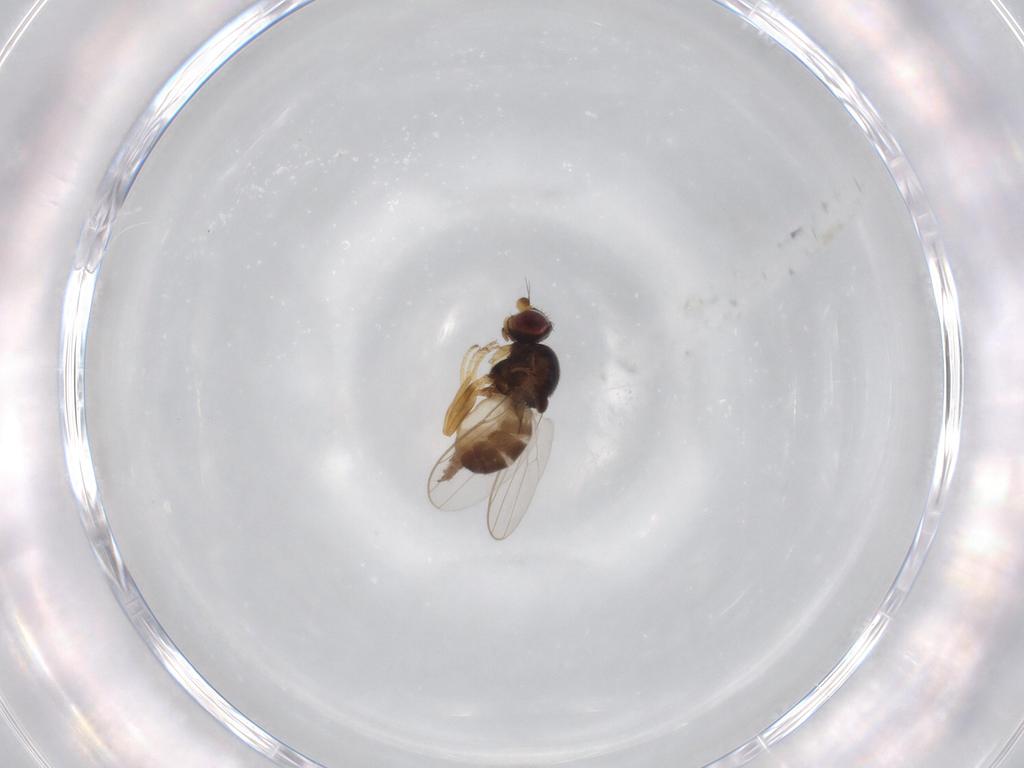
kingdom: Animalia
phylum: Arthropoda
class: Insecta
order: Diptera
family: Chloropidae
